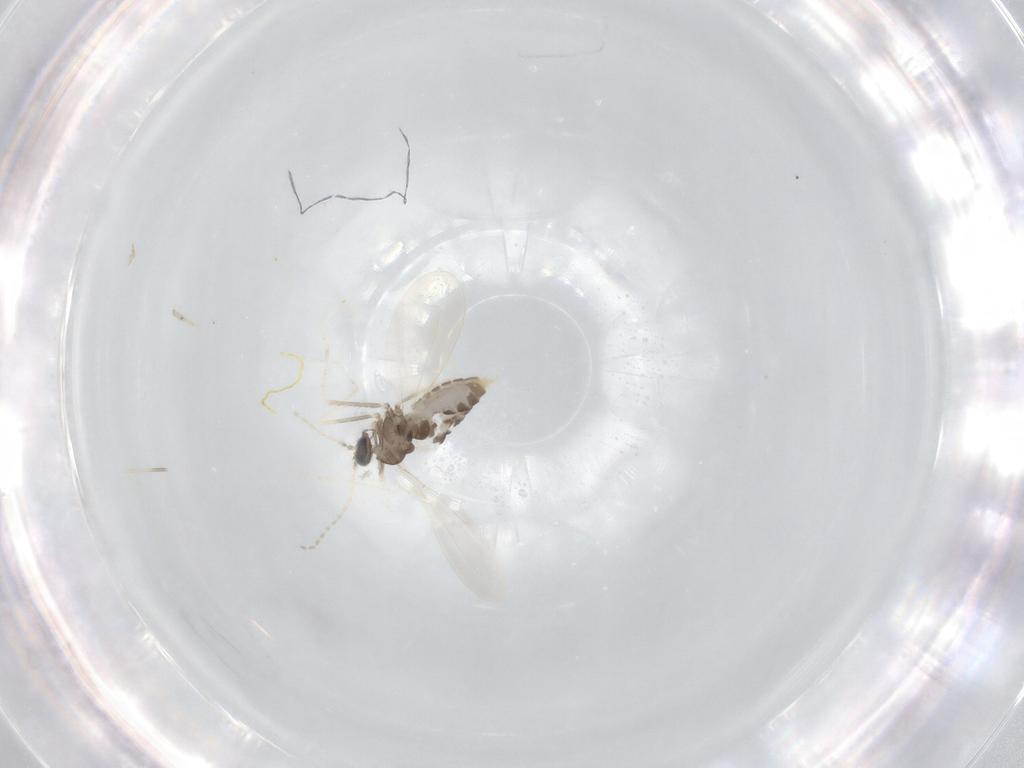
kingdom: Animalia
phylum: Arthropoda
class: Insecta
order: Diptera
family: Cecidomyiidae
